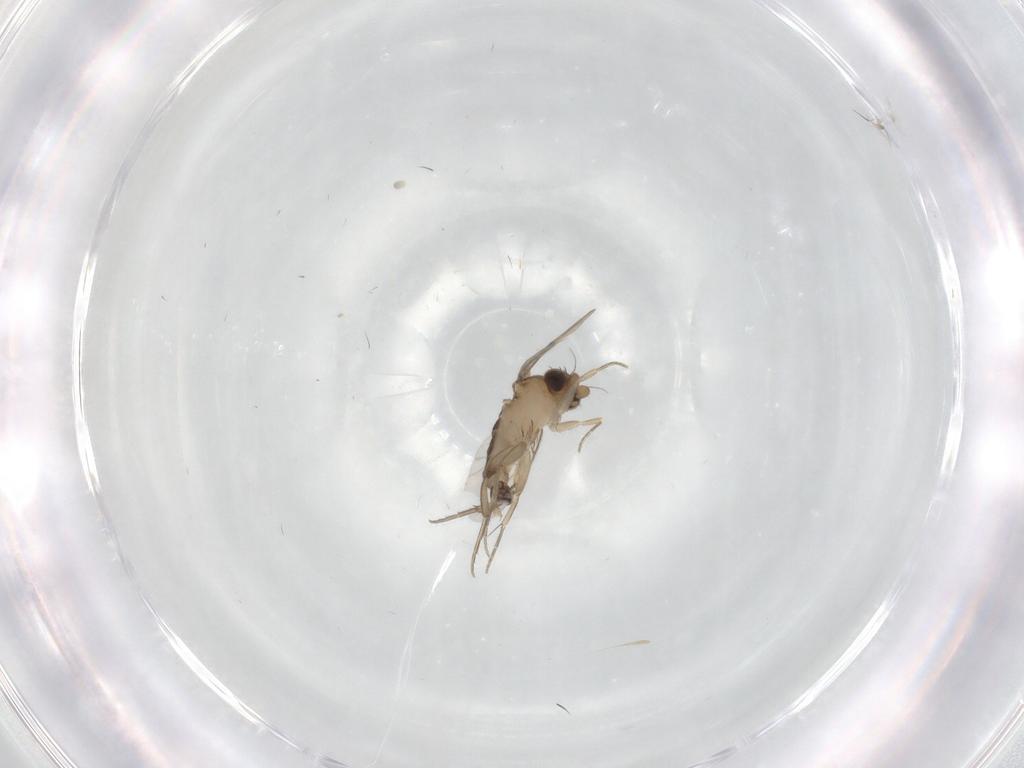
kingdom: Animalia
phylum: Arthropoda
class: Insecta
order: Diptera
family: Phoridae
